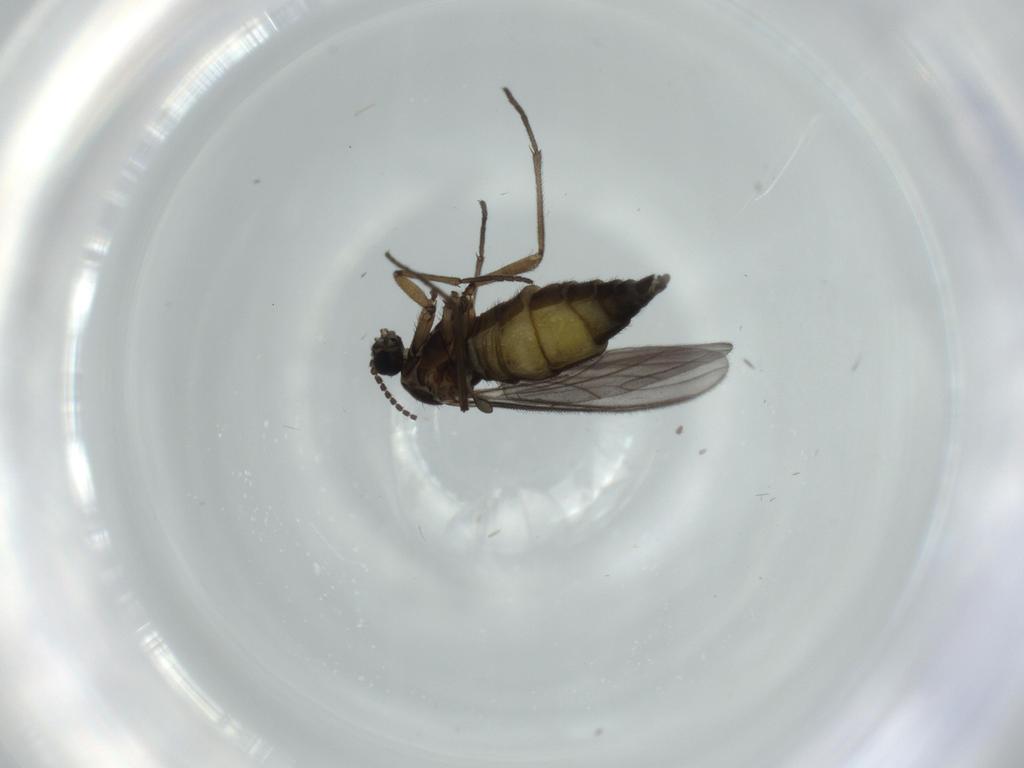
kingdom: Animalia
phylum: Arthropoda
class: Insecta
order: Diptera
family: Sciaridae
